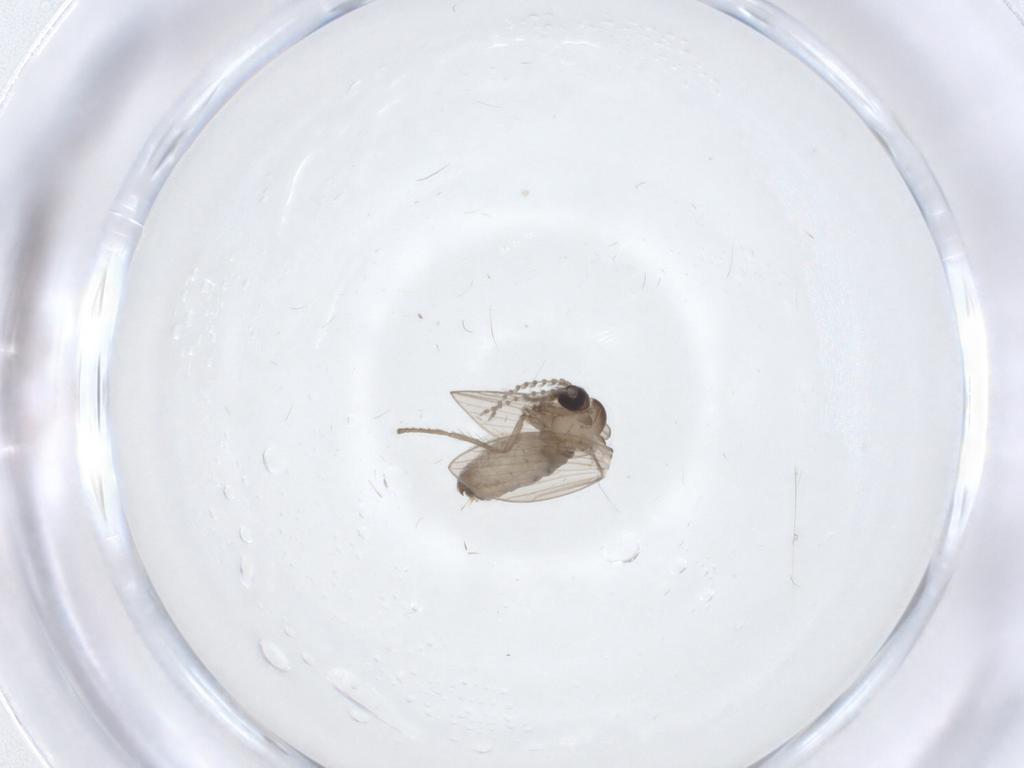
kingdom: Animalia
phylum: Arthropoda
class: Insecta
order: Diptera
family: Psychodidae
